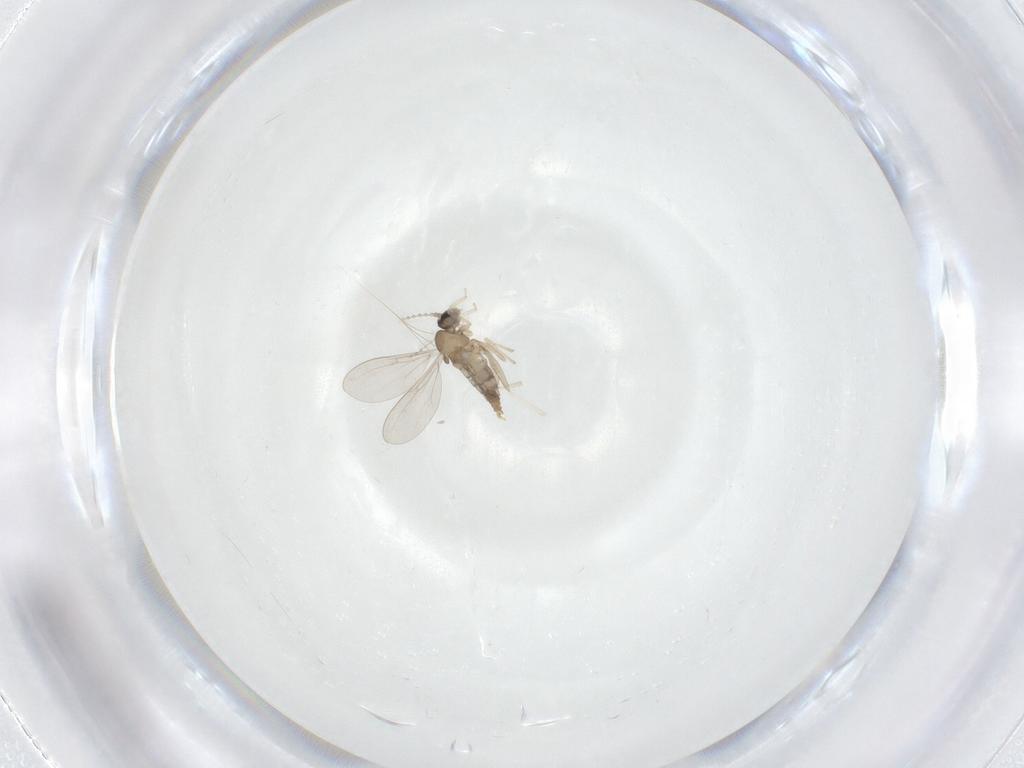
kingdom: Animalia
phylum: Arthropoda
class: Insecta
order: Diptera
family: Cecidomyiidae
